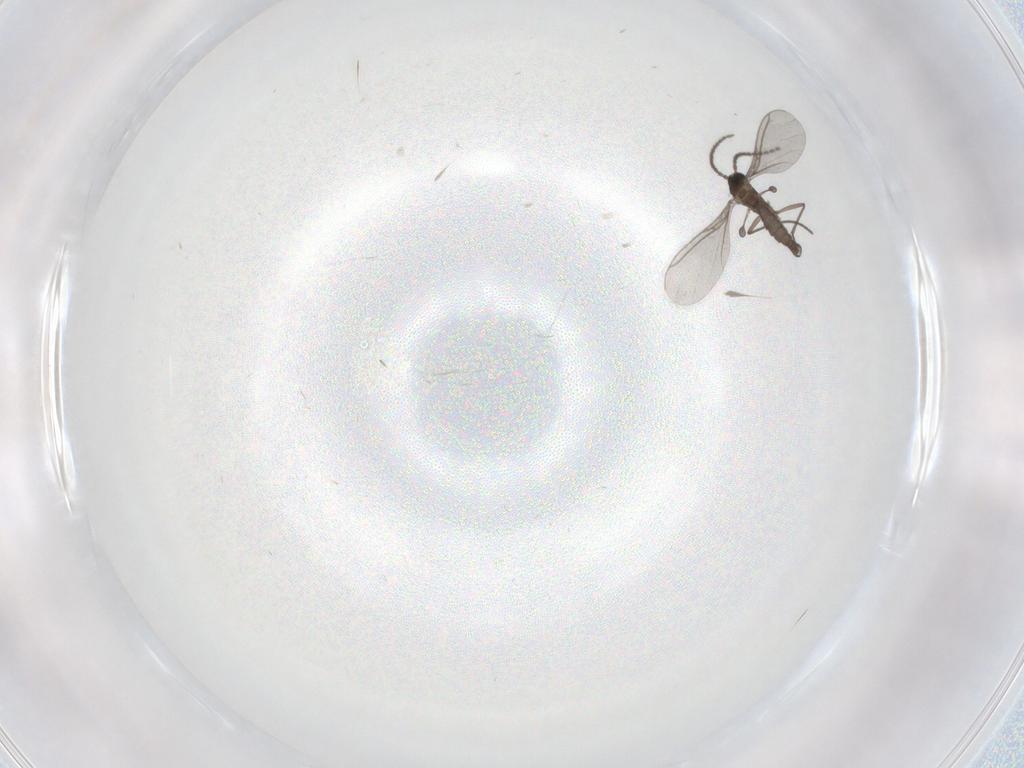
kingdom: Animalia
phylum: Arthropoda
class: Insecta
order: Diptera
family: Sciaridae
